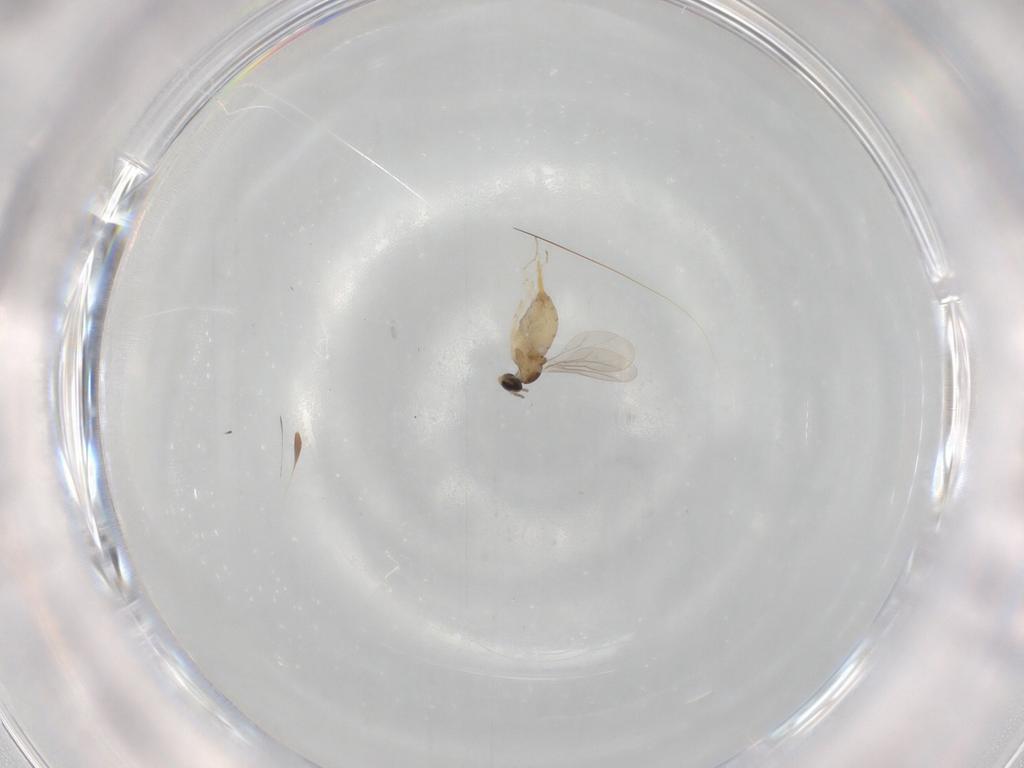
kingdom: Animalia
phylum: Arthropoda
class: Insecta
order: Diptera
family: Cecidomyiidae
